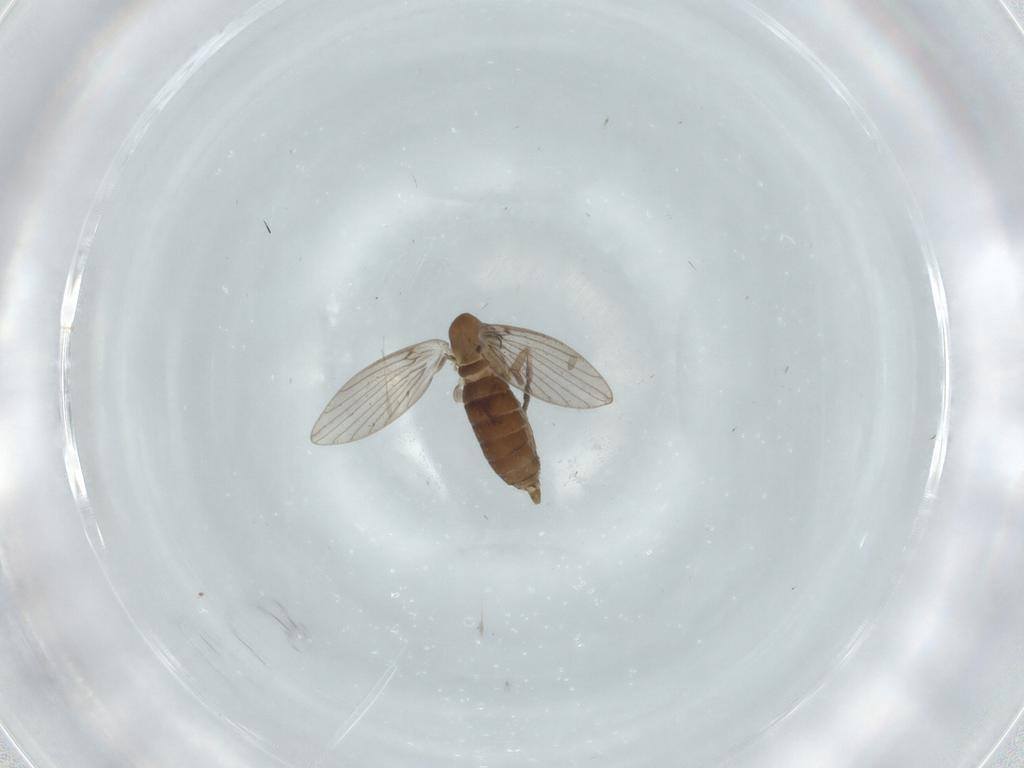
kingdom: Animalia
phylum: Arthropoda
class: Insecta
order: Diptera
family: Psychodidae
